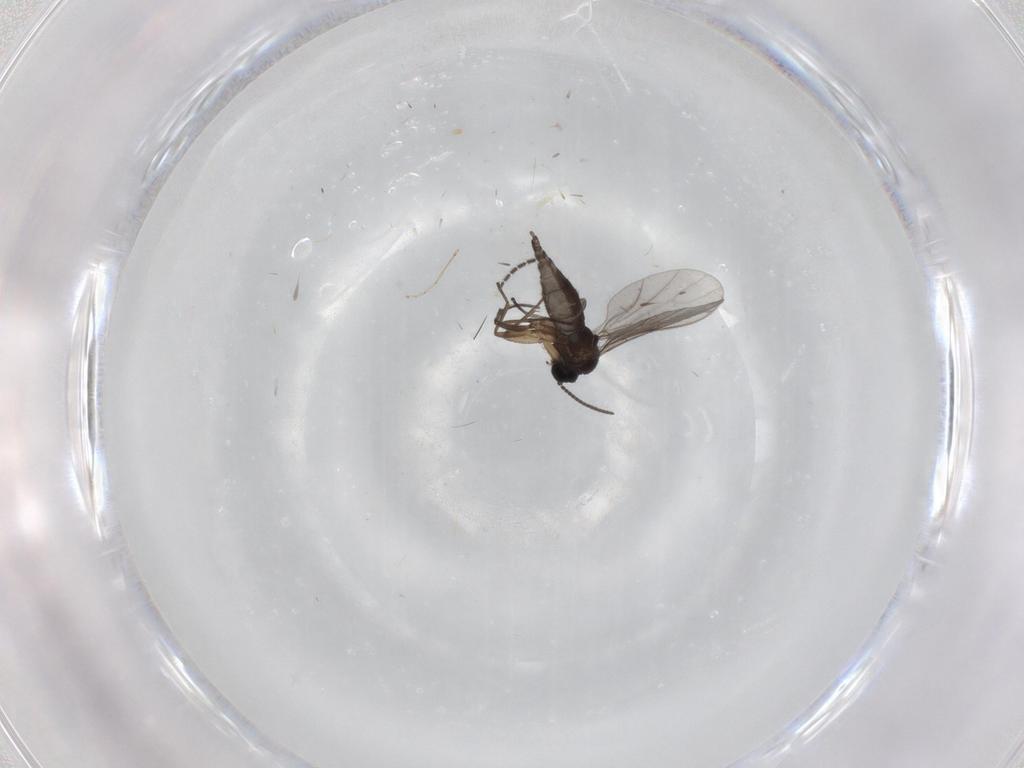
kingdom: Animalia
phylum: Arthropoda
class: Insecta
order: Diptera
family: Sciaridae
